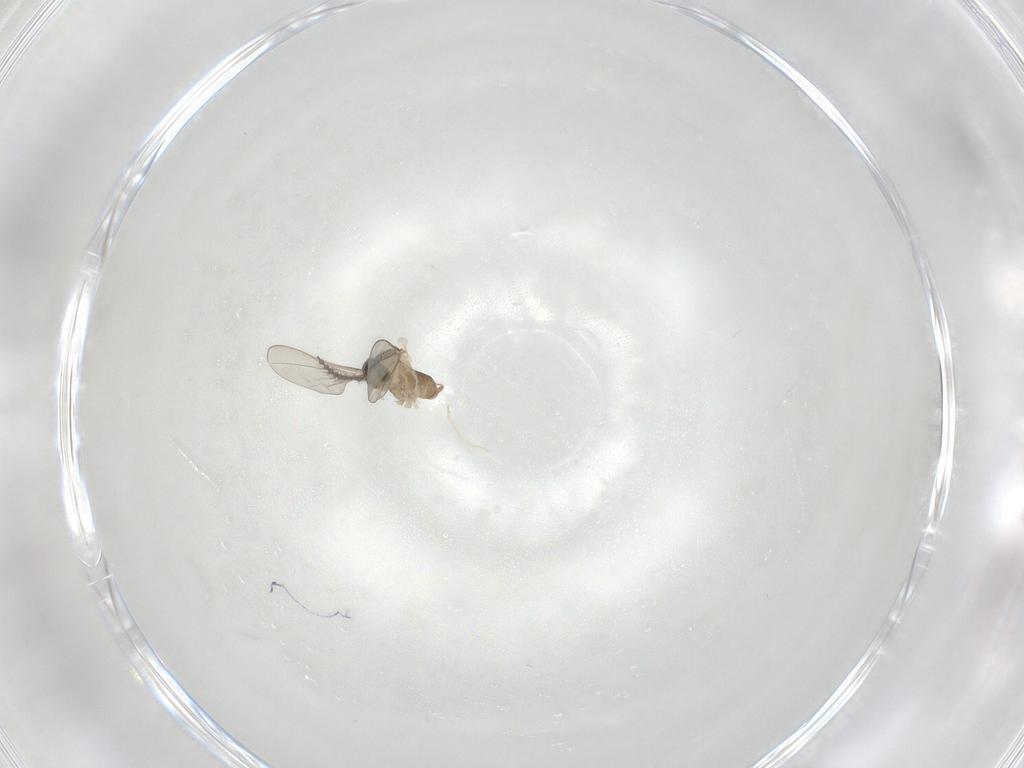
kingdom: Animalia
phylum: Arthropoda
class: Insecta
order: Diptera
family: Cecidomyiidae
